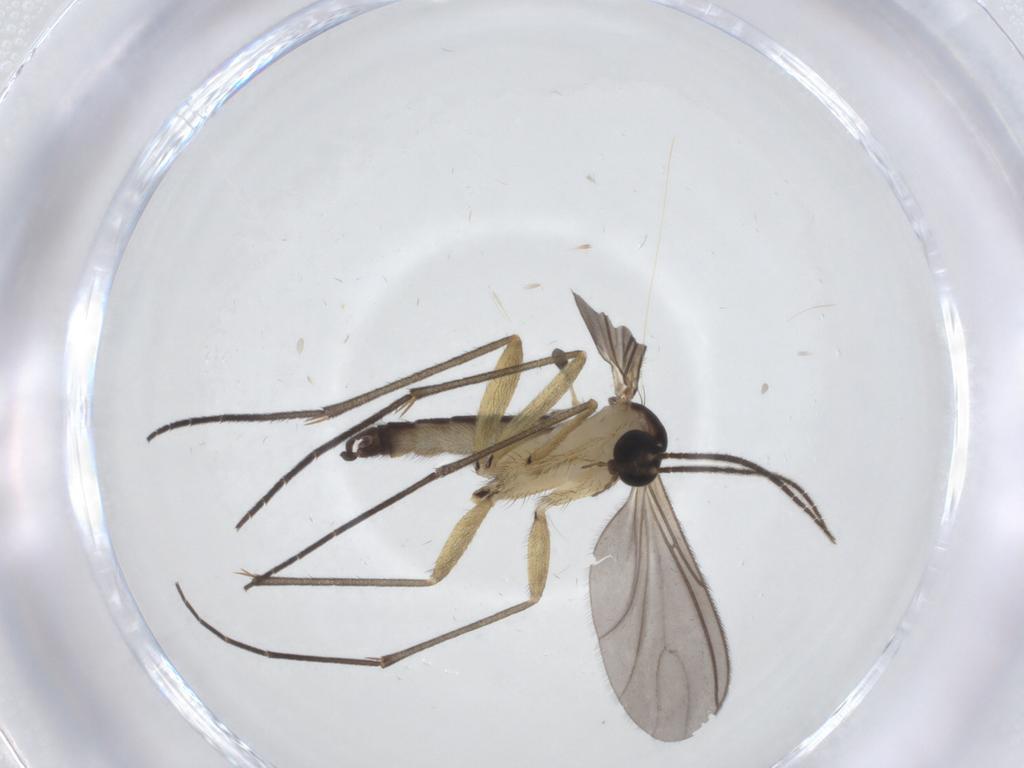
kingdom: Animalia
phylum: Arthropoda
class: Insecta
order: Diptera
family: Sciaridae
